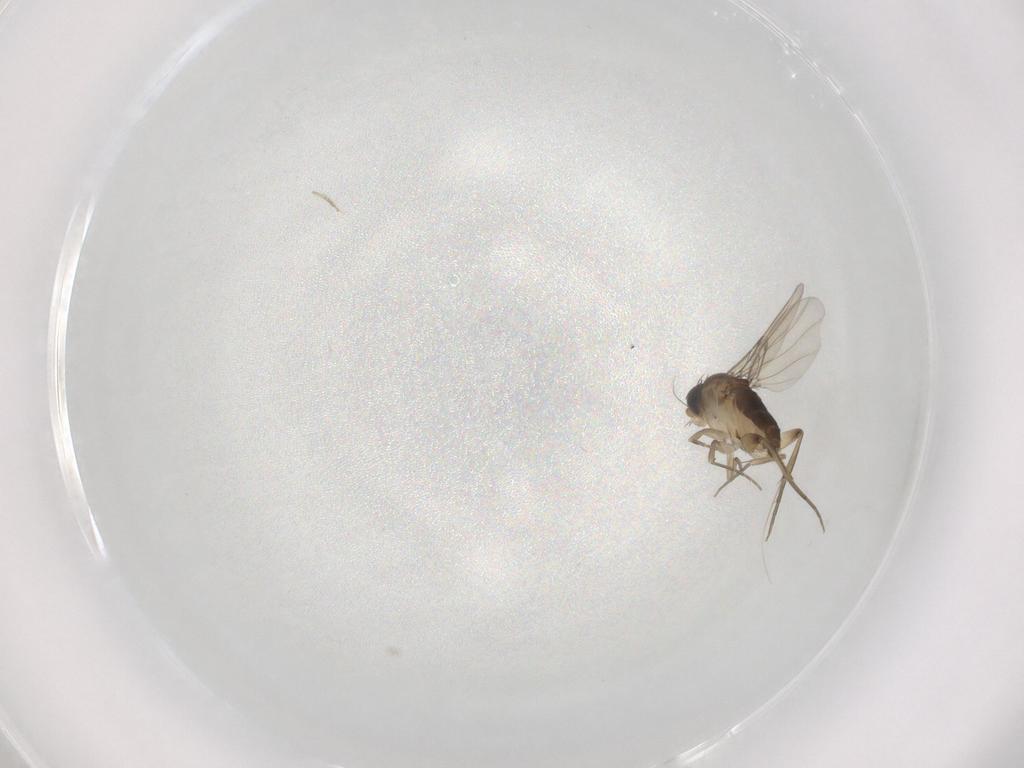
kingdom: Animalia
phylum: Arthropoda
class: Insecta
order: Diptera
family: Phoridae
